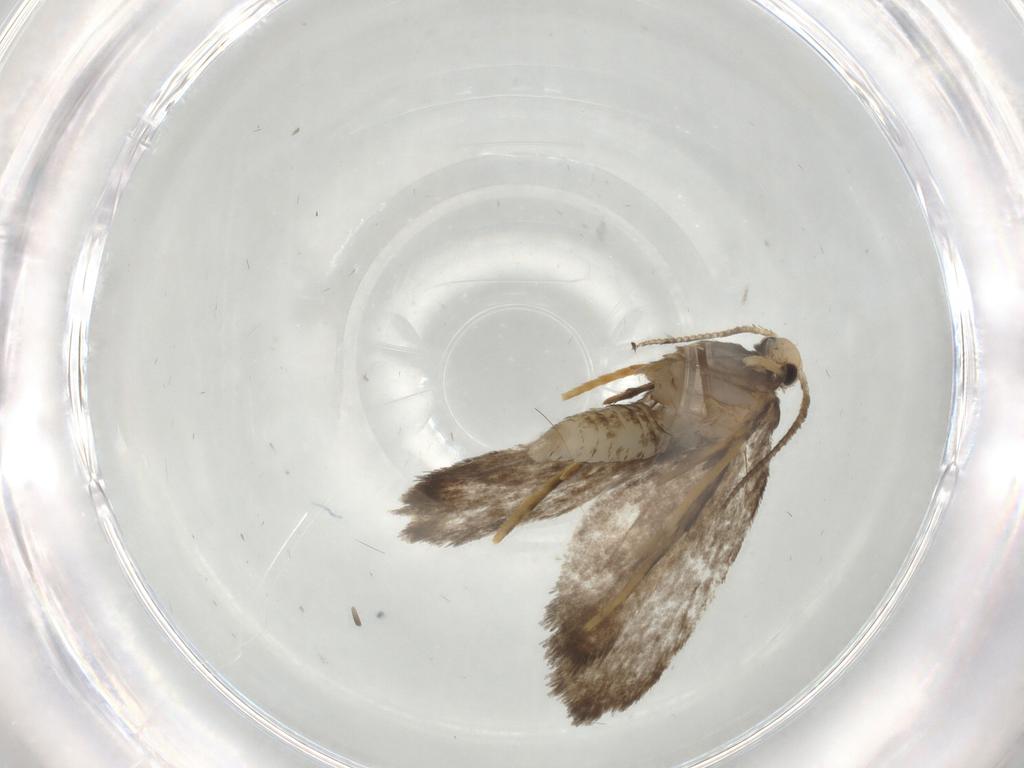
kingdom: Animalia
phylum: Arthropoda
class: Insecta
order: Lepidoptera
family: Psychidae
